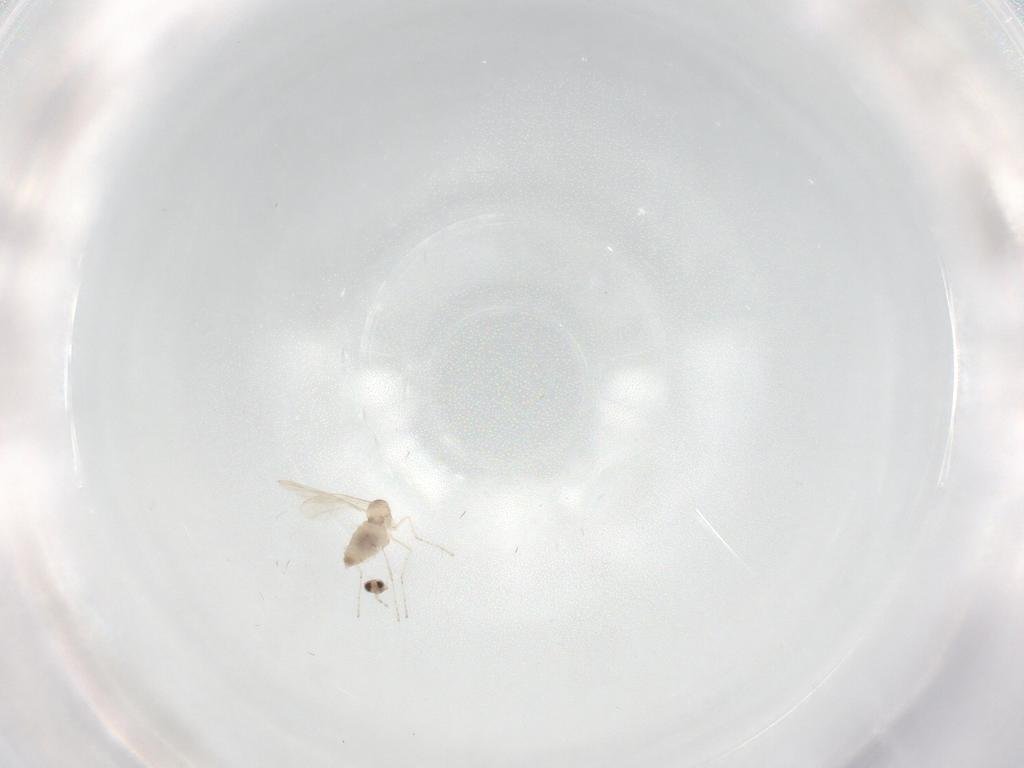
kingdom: Animalia
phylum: Arthropoda
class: Insecta
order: Diptera
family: Cecidomyiidae
